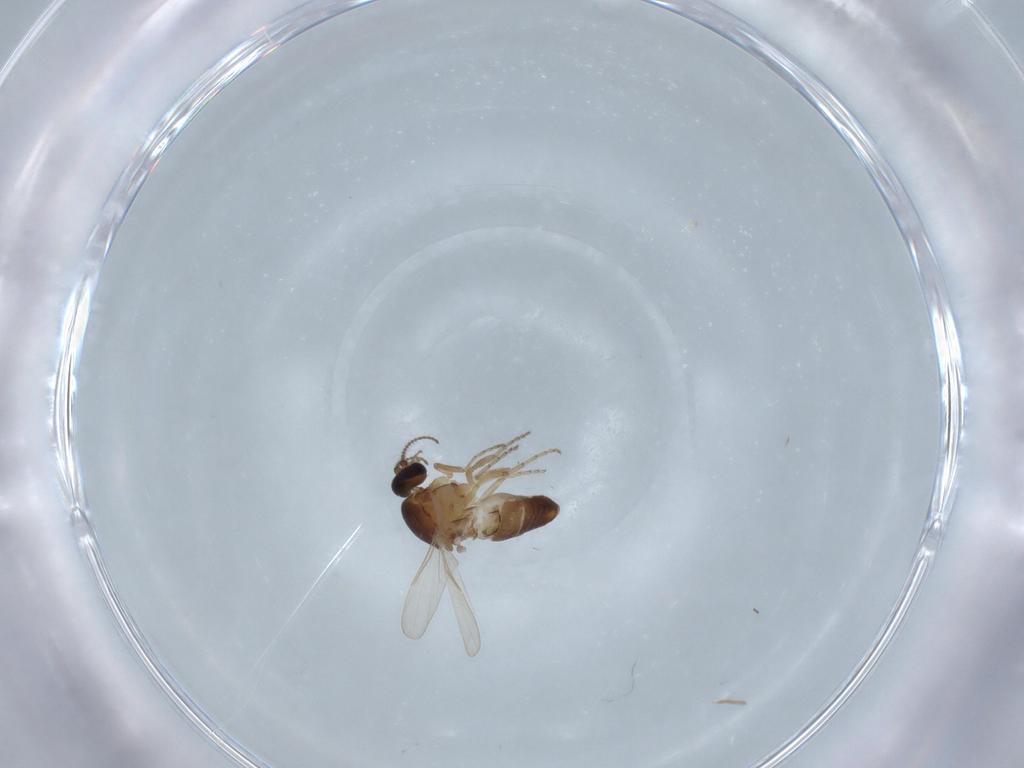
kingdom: Animalia
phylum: Arthropoda
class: Insecta
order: Diptera
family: Ceratopogonidae
